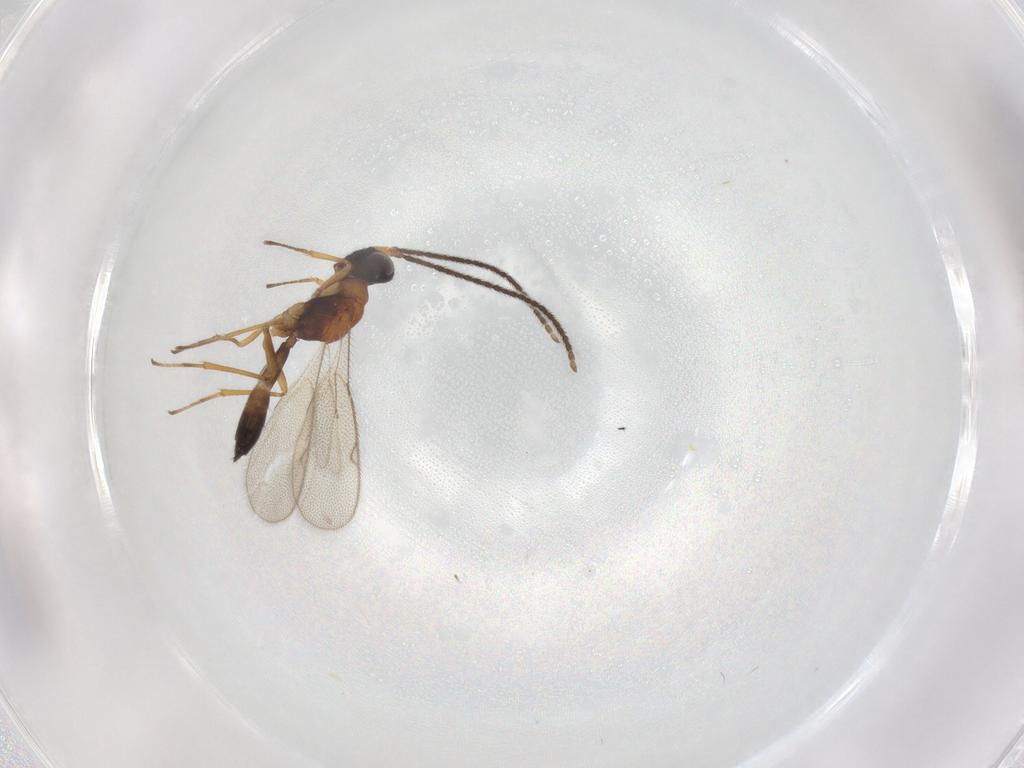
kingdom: Animalia
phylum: Arthropoda
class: Insecta
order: Hymenoptera
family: Pteromalidae
